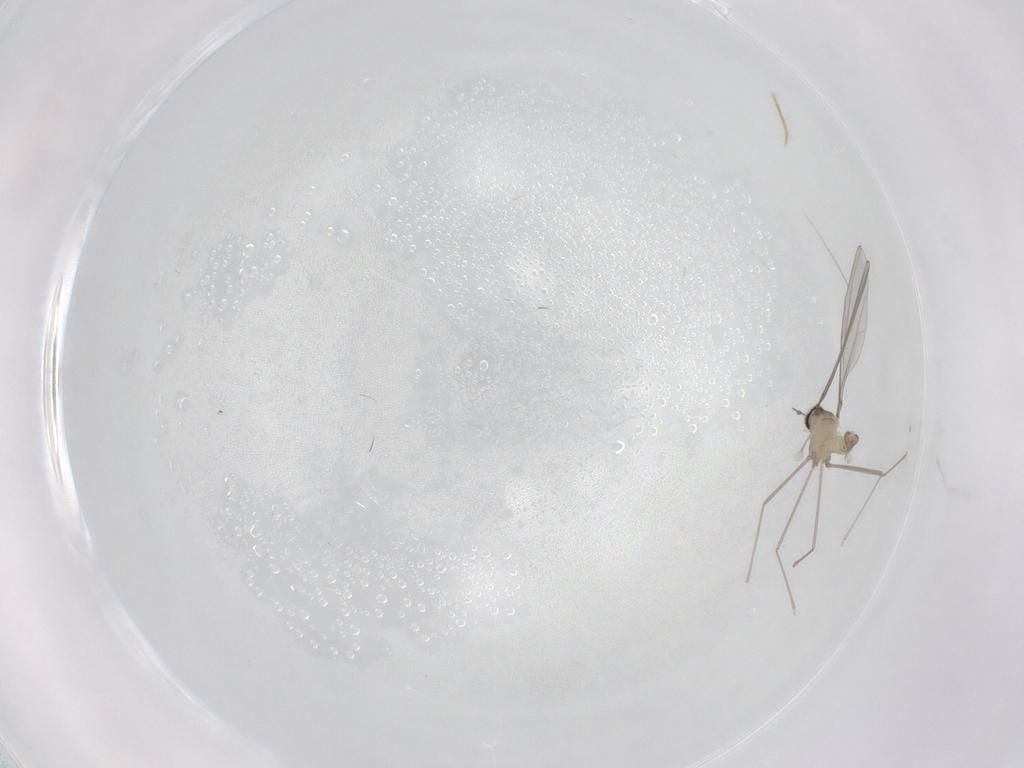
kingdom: Animalia
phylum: Arthropoda
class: Insecta
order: Diptera
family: Cecidomyiidae
